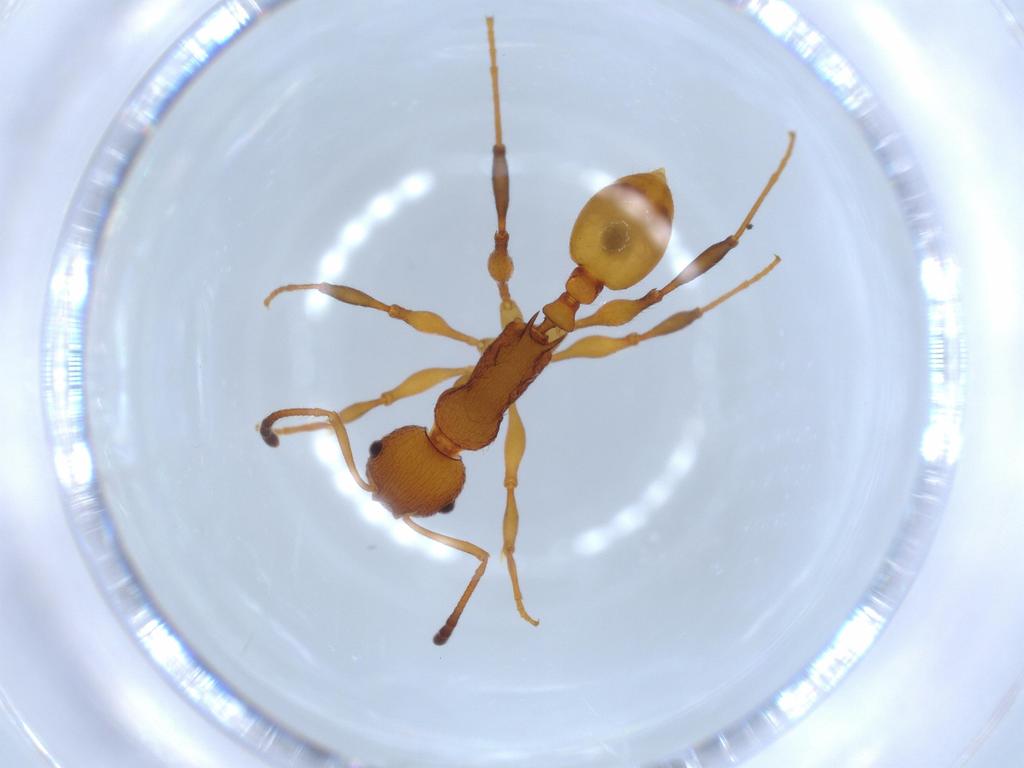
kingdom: Animalia
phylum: Arthropoda
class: Insecta
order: Hymenoptera
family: Formicidae
